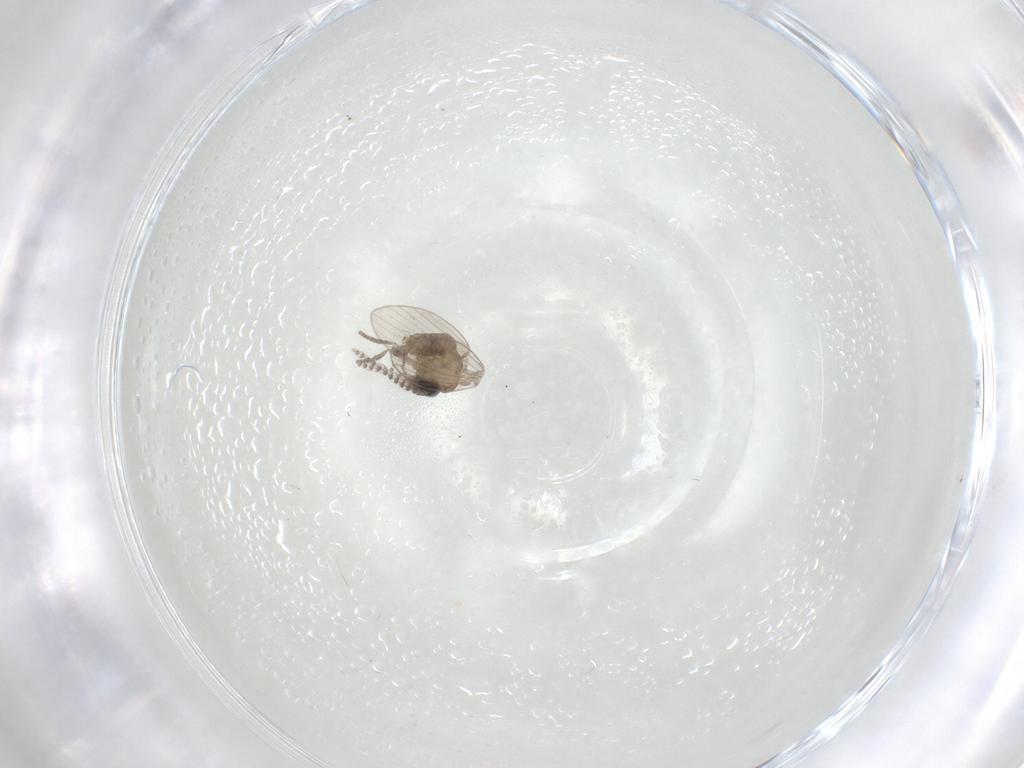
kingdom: Animalia
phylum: Arthropoda
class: Insecta
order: Diptera
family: Psychodidae
